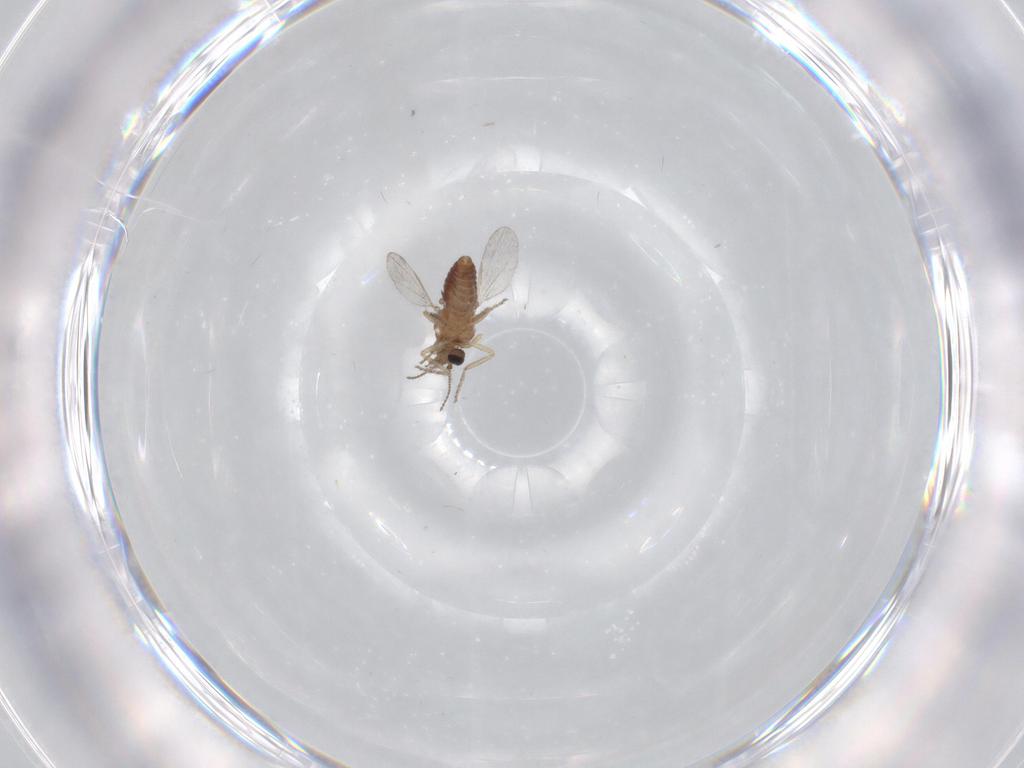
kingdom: Animalia
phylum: Arthropoda
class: Insecta
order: Diptera
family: Ceratopogonidae
